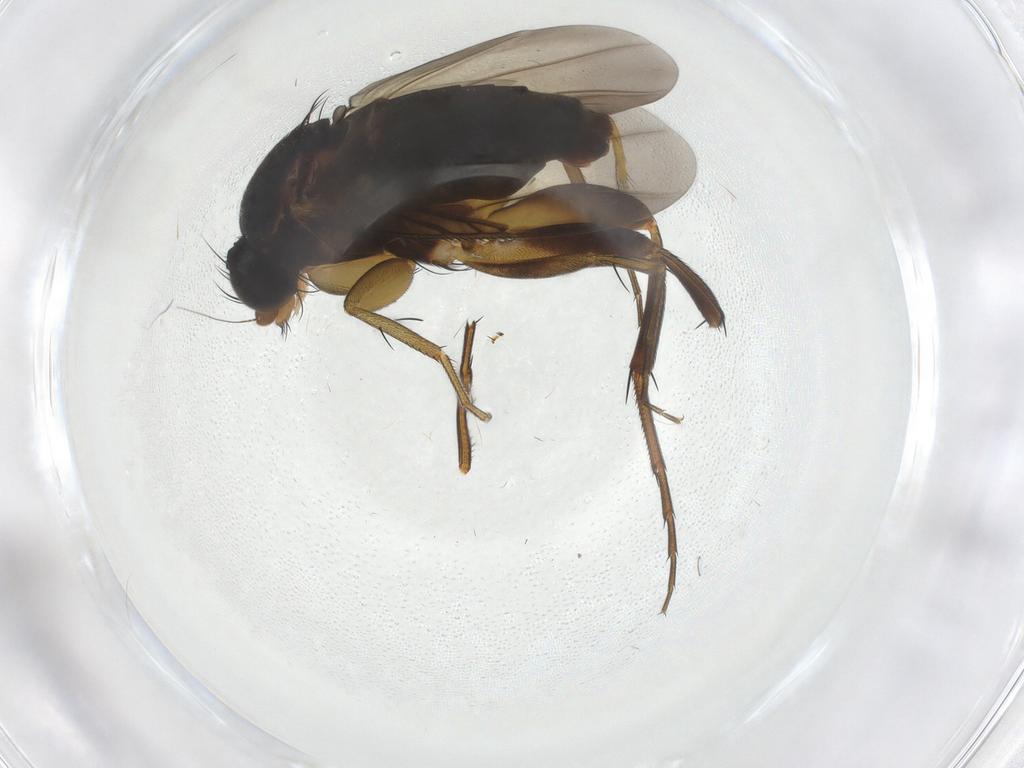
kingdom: Animalia
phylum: Arthropoda
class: Insecta
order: Diptera
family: Phoridae
